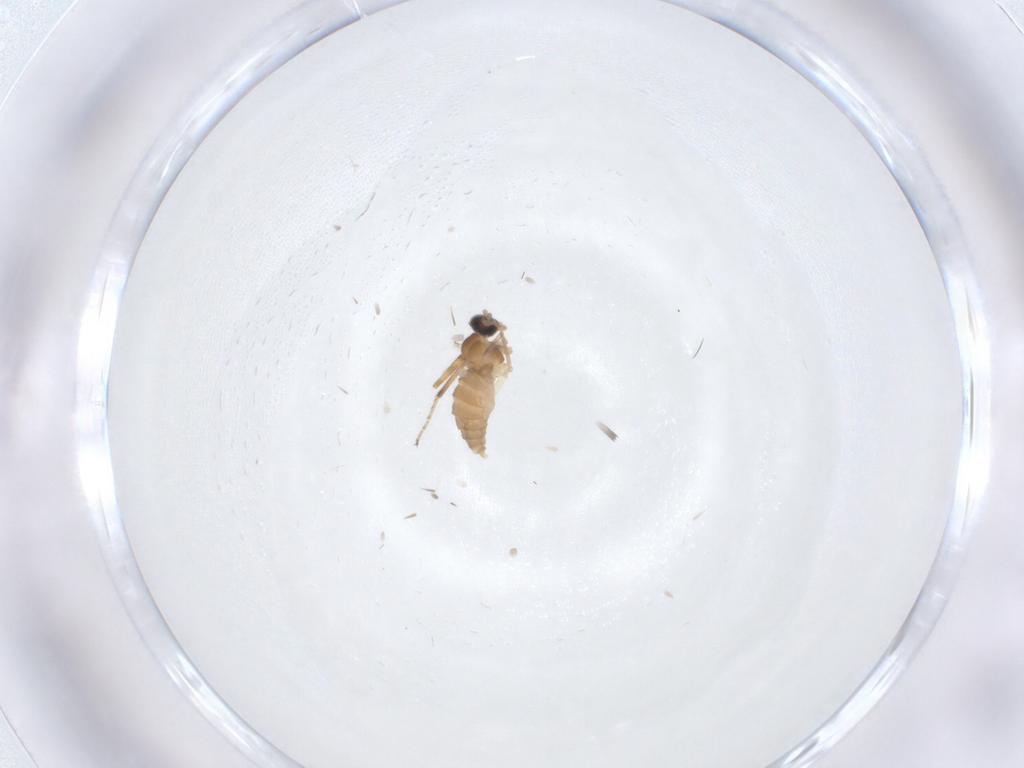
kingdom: Animalia
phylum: Arthropoda
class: Insecta
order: Diptera
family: Ceratopogonidae
